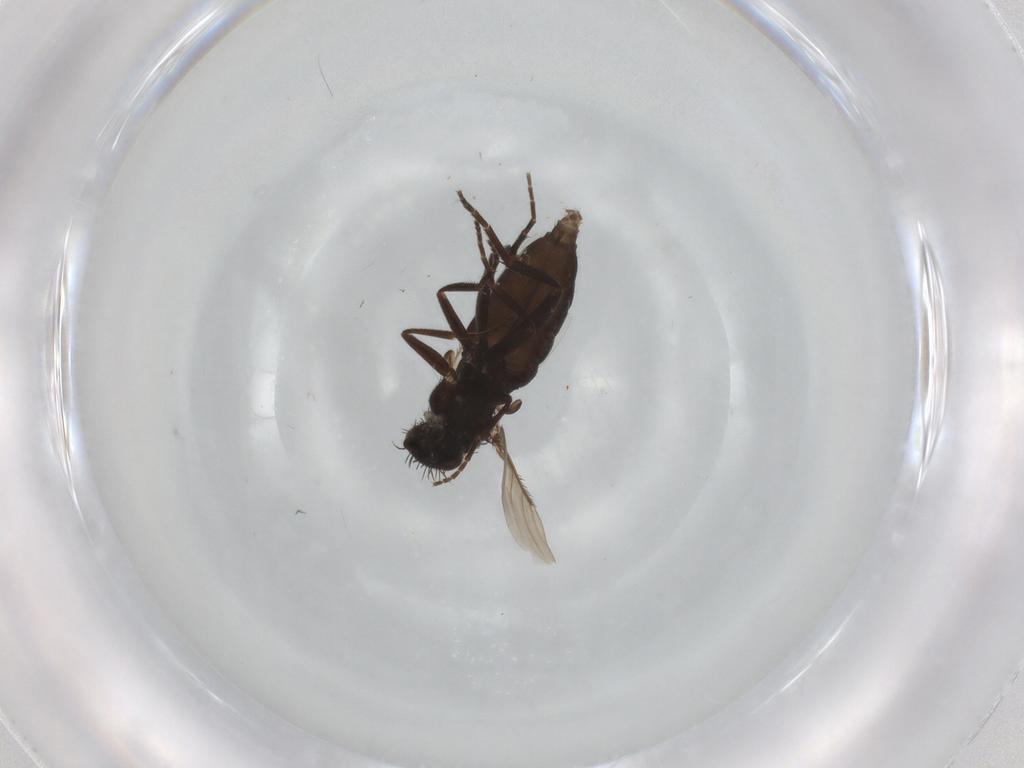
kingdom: Animalia
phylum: Arthropoda
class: Insecta
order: Diptera
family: Phoridae
